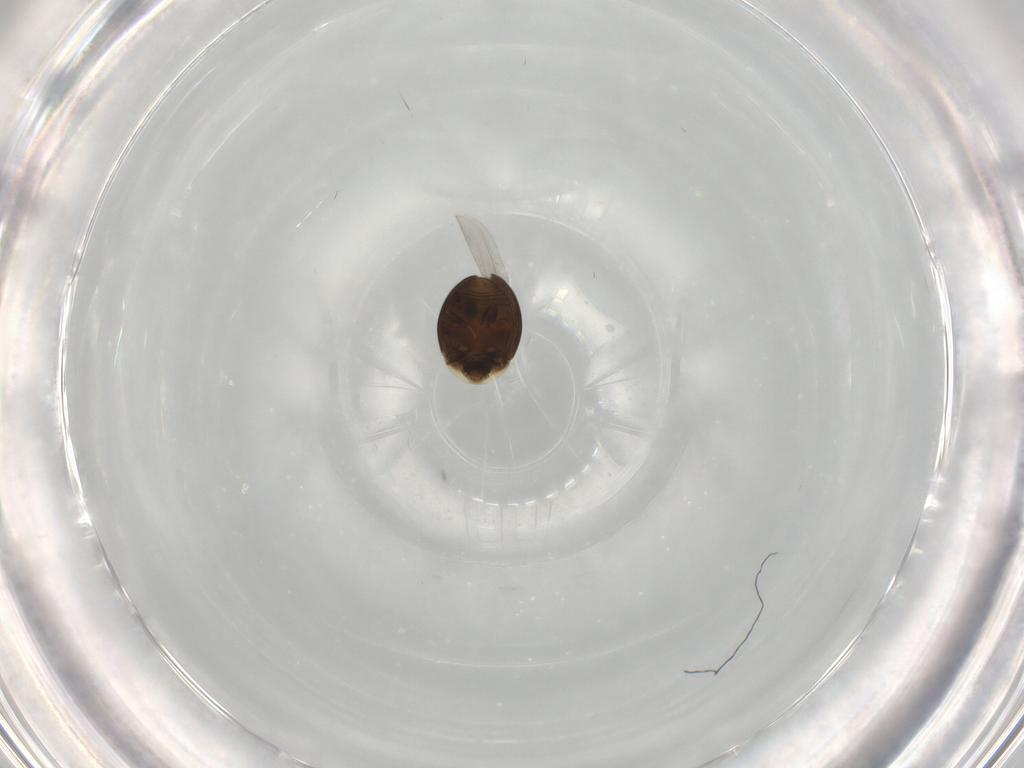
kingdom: Animalia
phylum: Arthropoda
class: Insecta
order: Coleoptera
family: Corylophidae
